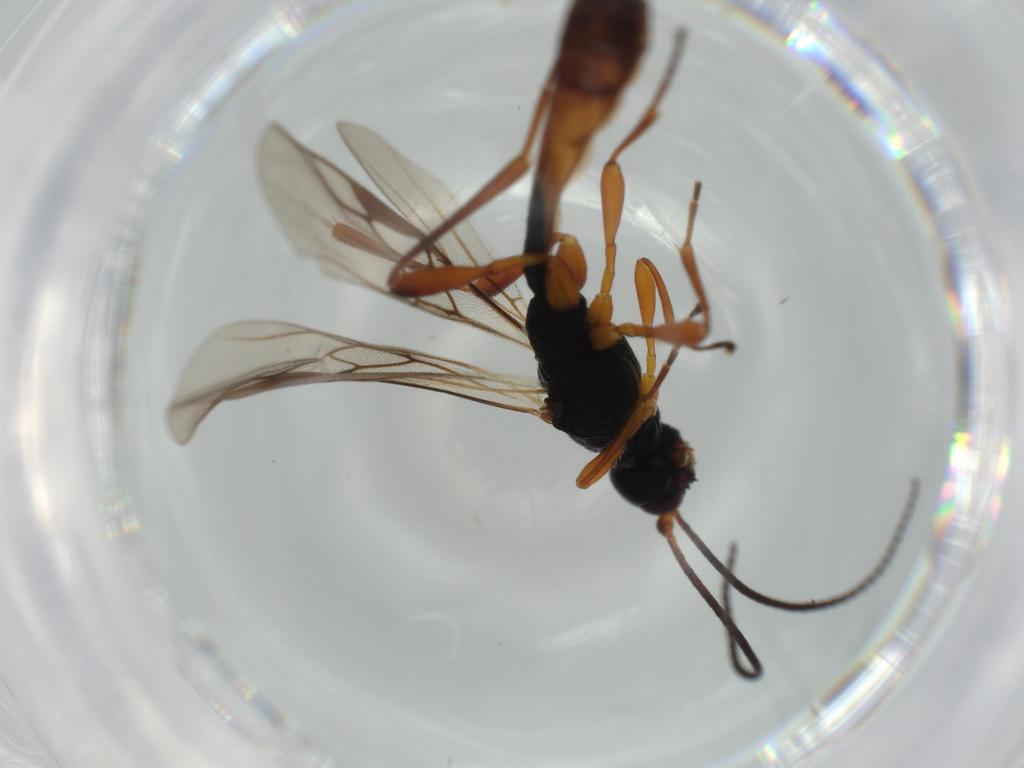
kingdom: Animalia
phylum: Arthropoda
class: Insecta
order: Hymenoptera
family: Braconidae
